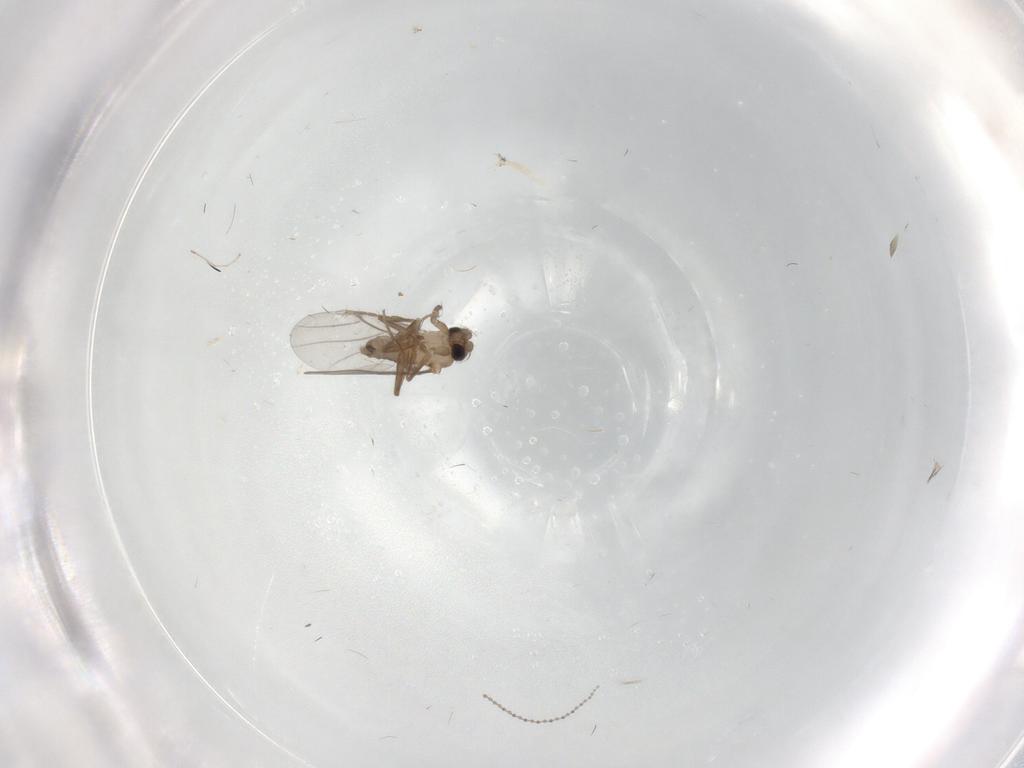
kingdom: Animalia
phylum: Arthropoda
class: Insecta
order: Diptera
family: Cecidomyiidae
